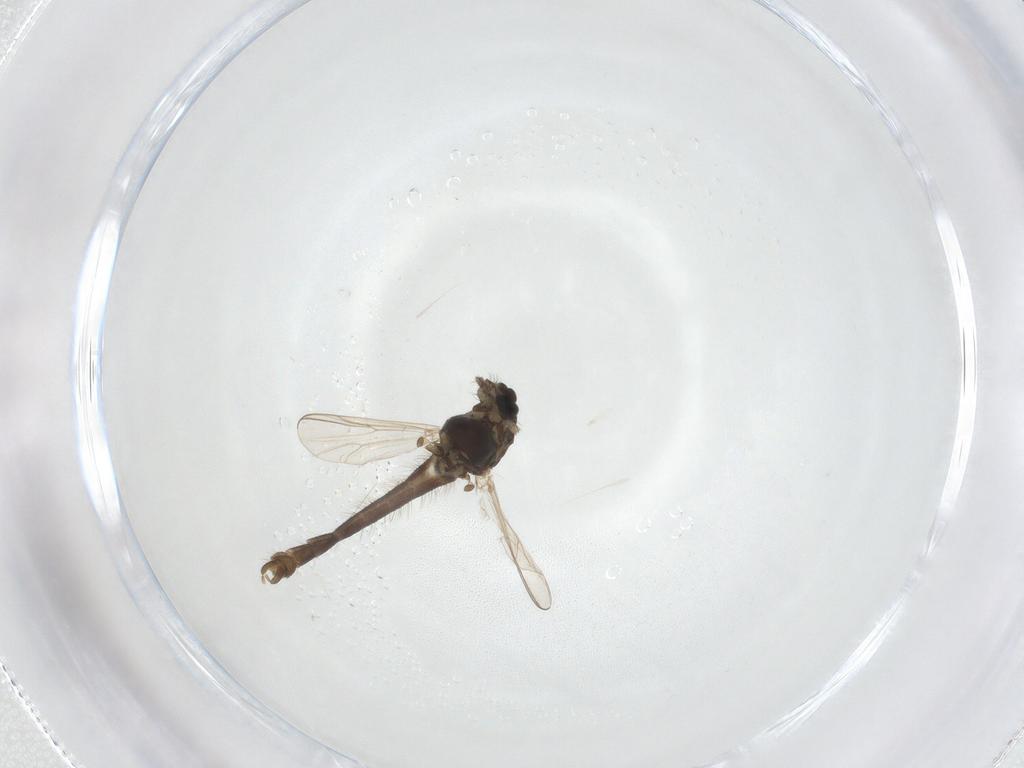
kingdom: Animalia
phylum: Arthropoda
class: Insecta
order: Diptera
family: Chironomidae
